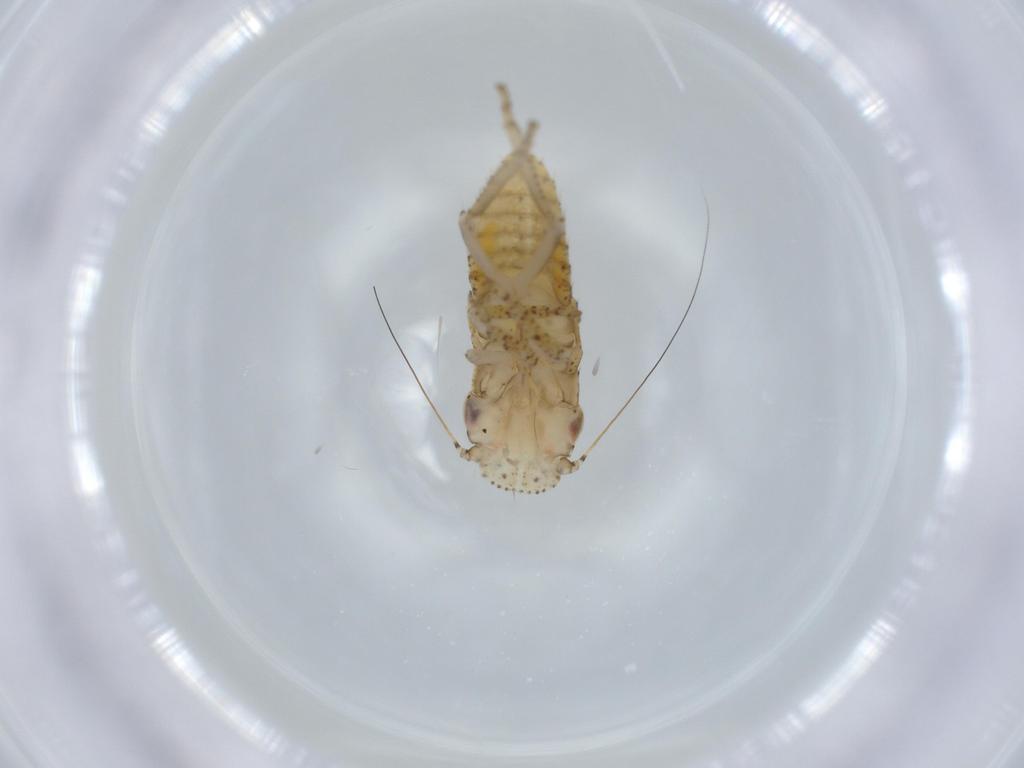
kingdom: Animalia
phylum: Arthropoda
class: Insecta
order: Hemiptera
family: Cicadellidae
